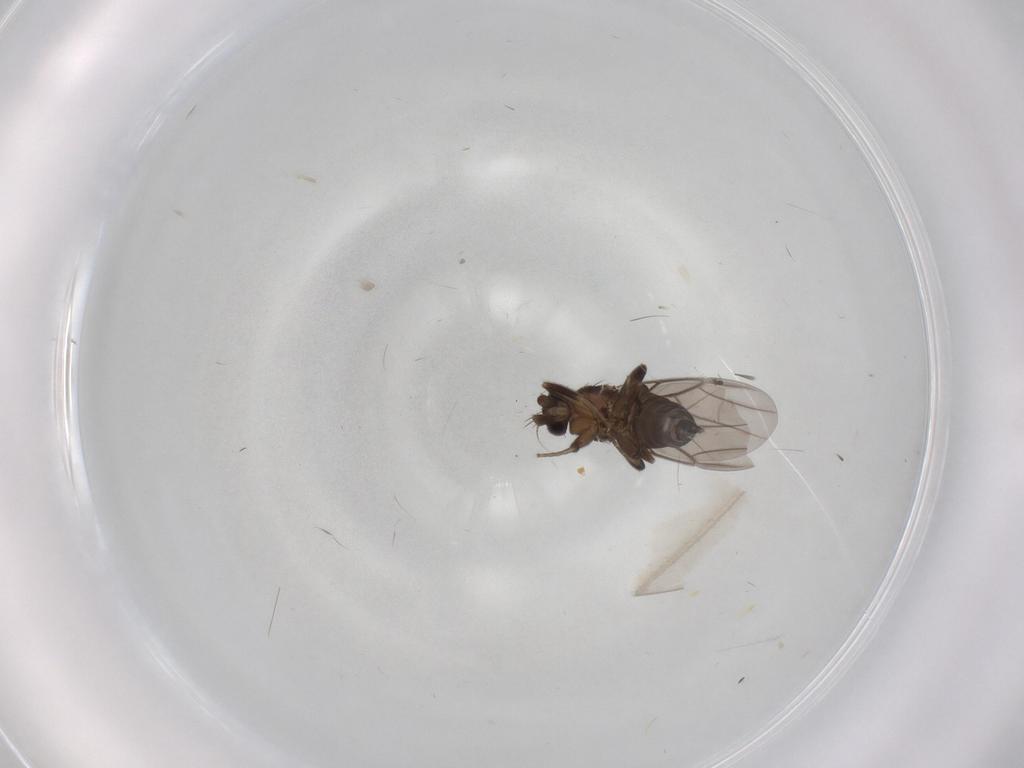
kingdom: Animalia
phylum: Arthropoda
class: Insecta
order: Diptera
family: Phoridae
